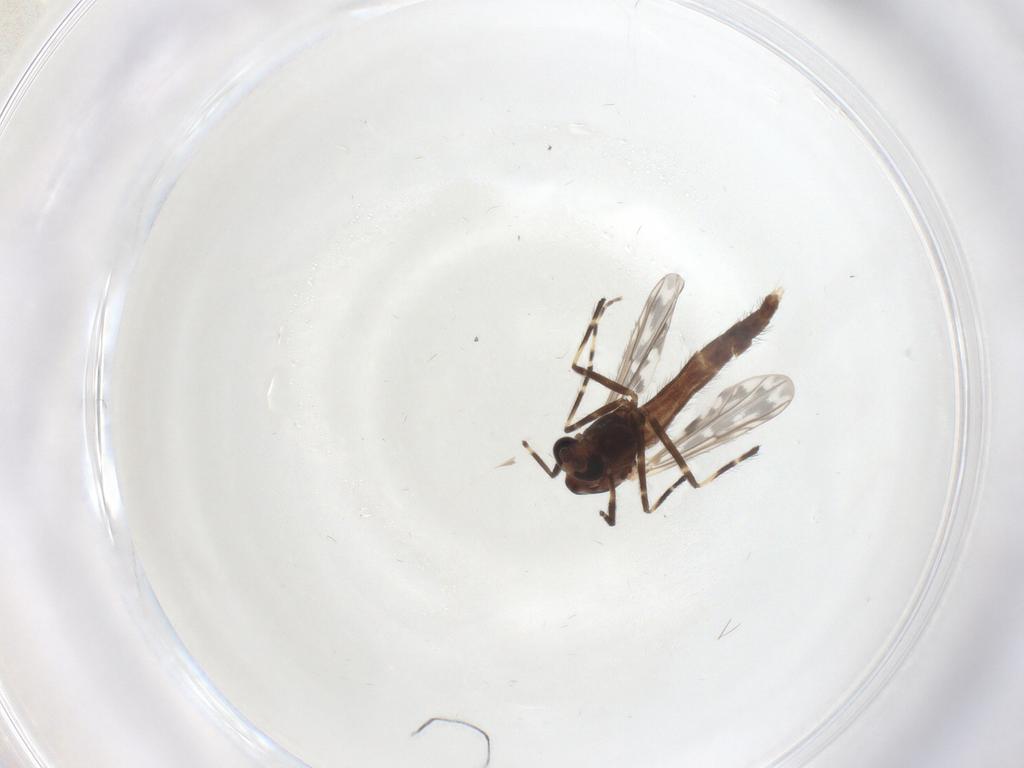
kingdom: Animalia
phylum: Arthropoda
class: Insecta
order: Diptera
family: Chironomidae
